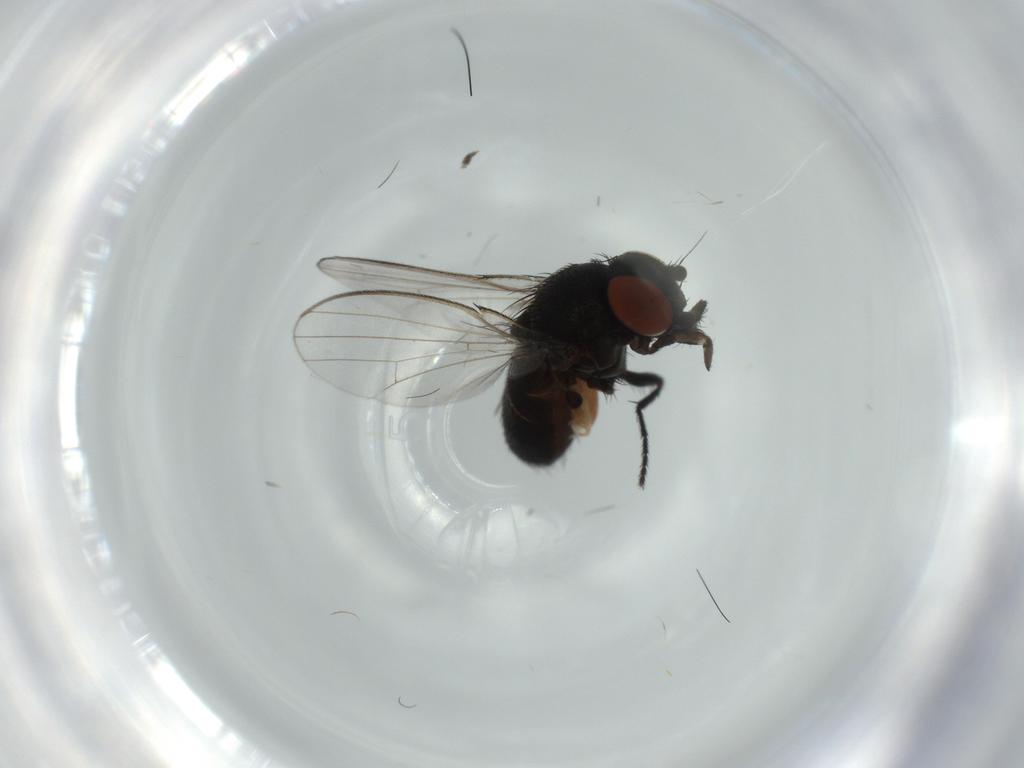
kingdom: Animalia
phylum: Arthropoda
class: Insecta
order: Diptera
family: Milichiidae
